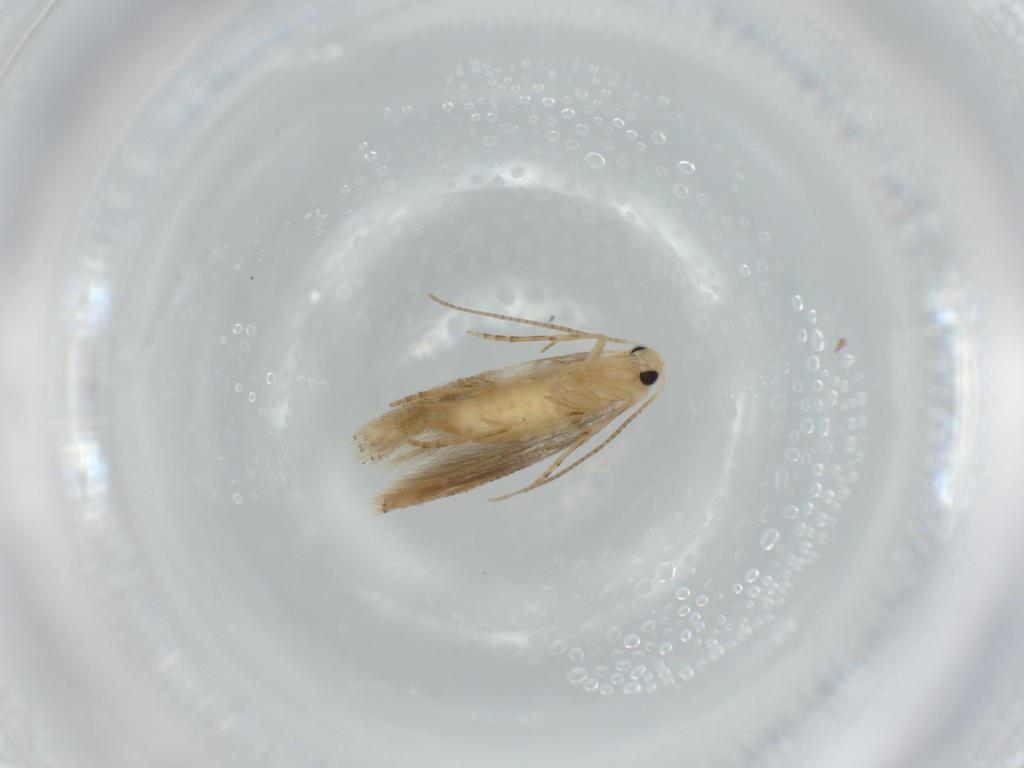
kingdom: Animalia
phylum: Arthropoda
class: Insecta
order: Lepidoptera
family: Bucculatricidae
